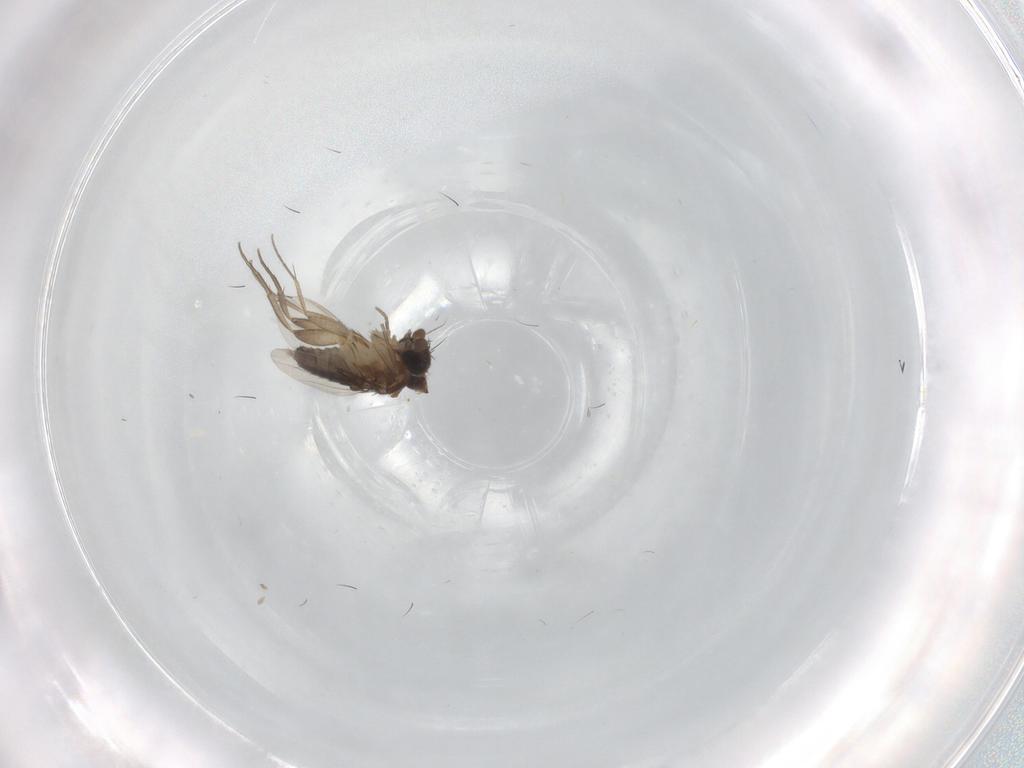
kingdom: Animalia
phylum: Arthropoda
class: Insecta
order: Diptera
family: Phoridae
